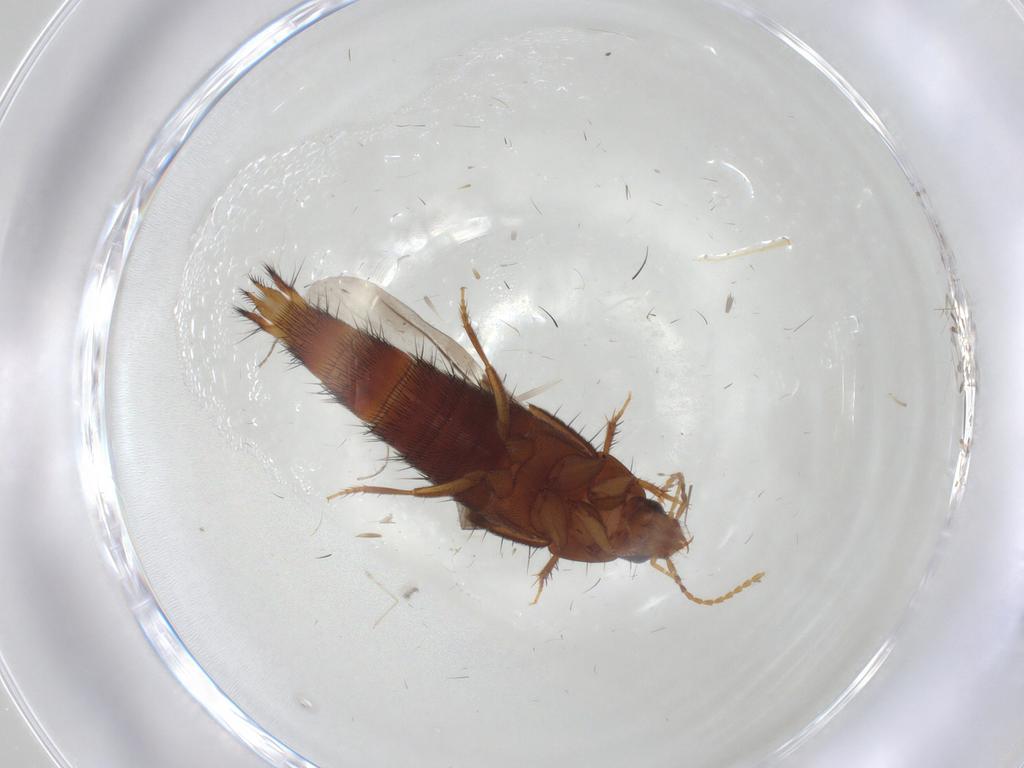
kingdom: Animalia
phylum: Arthropoda
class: Insecta
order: Coleoptera
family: Staphylinidae
